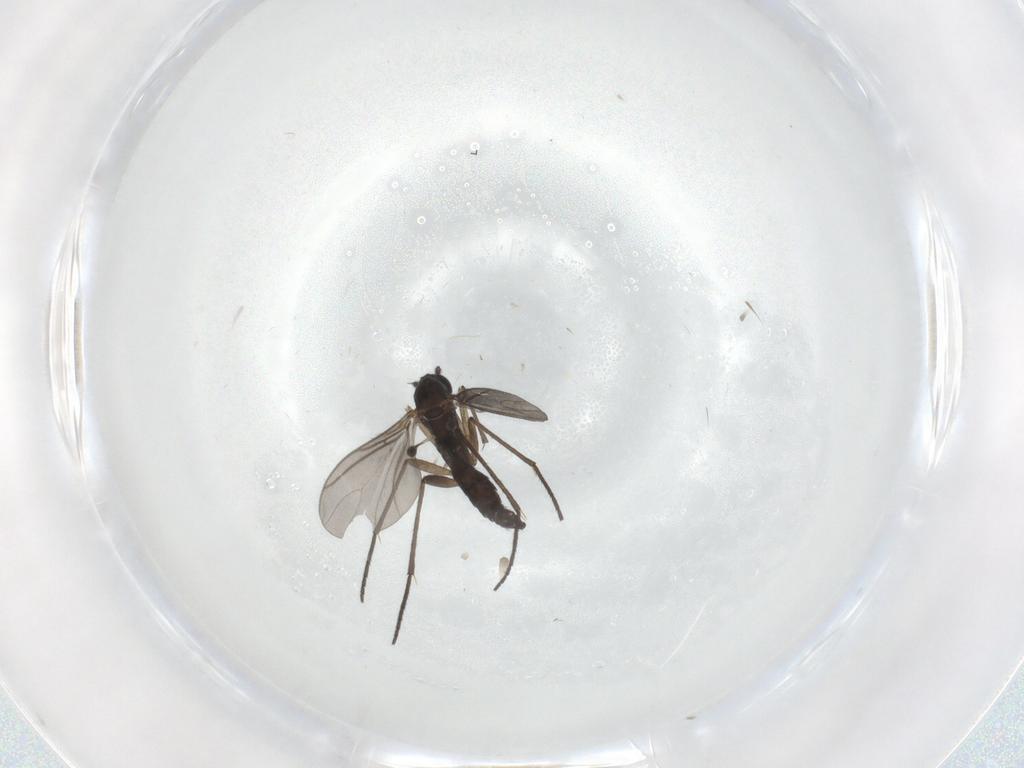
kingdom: Animalia
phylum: Arthropoda
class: Insecta
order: Diptera
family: Sciaridae
